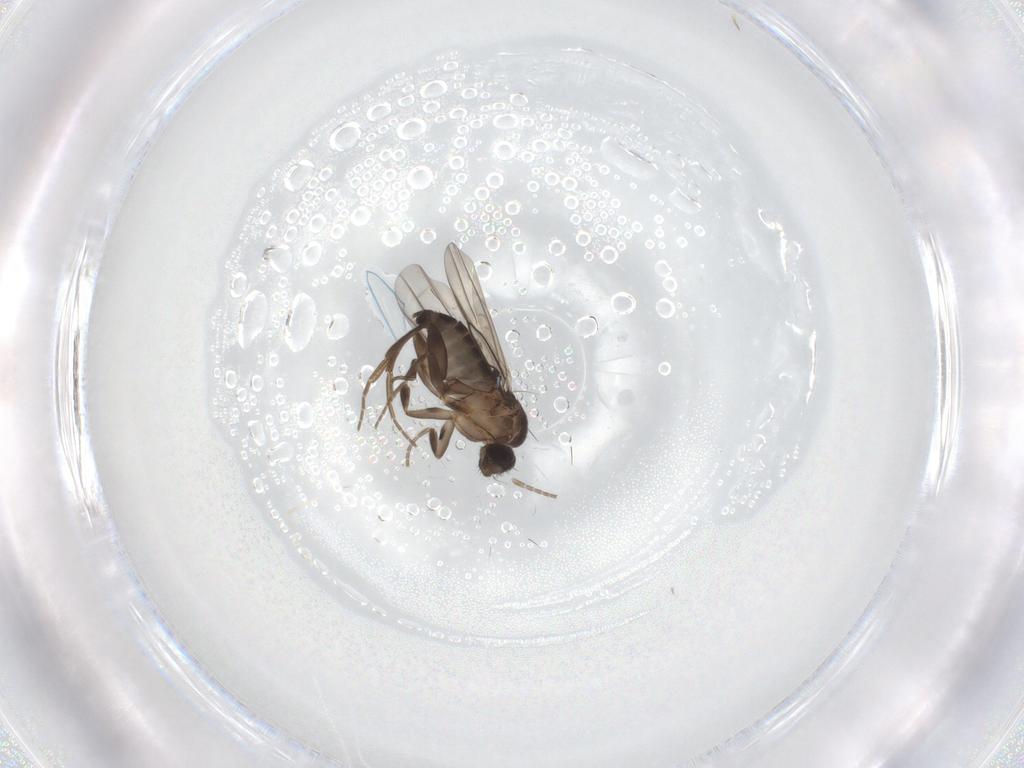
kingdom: Animalia
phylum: Arthropoda
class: Insecta
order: Diptera
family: Phoridae
